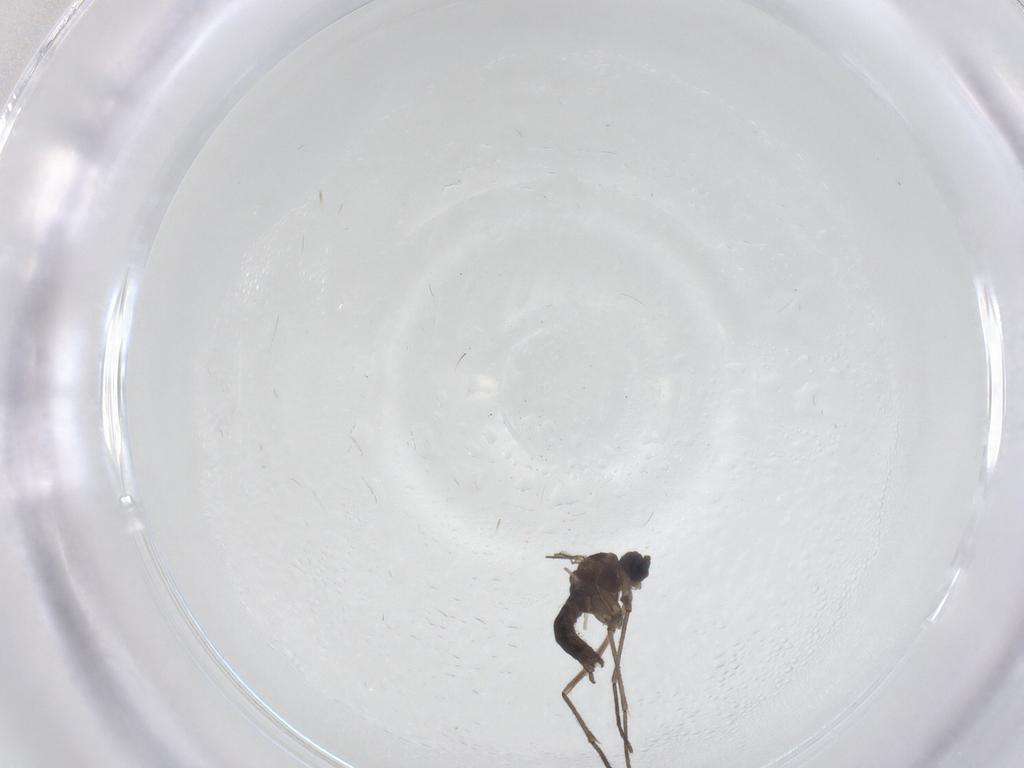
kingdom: Animalia
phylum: Arthropoda
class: Insecta
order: Diptera
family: Sciaridae
